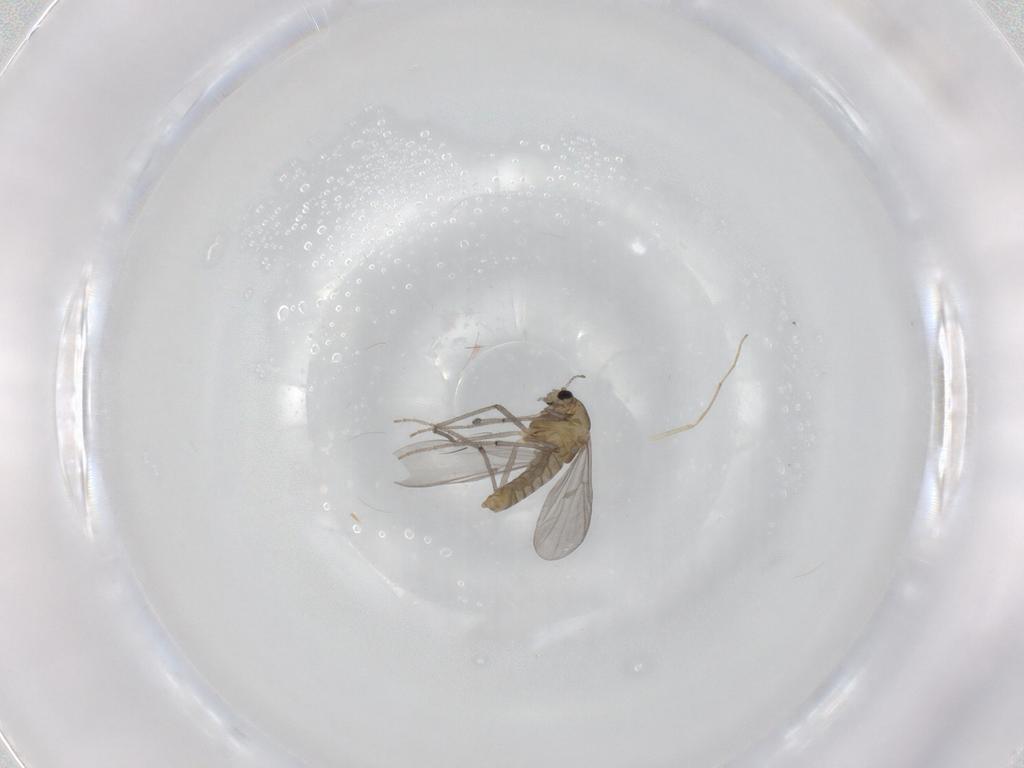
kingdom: Animalia
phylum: Arthropoda
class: Insecta
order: Diptera
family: Chironomidae
